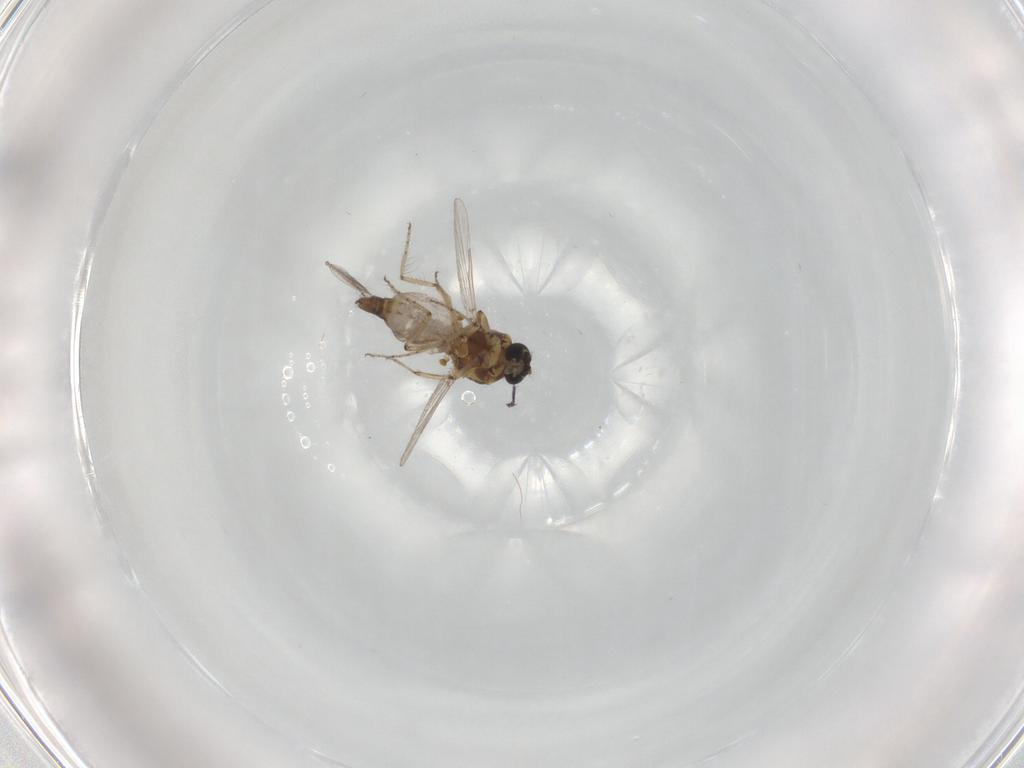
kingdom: Animalia
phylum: Arthropoda
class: Insecta
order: Diptera
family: Ceratopogonidae
